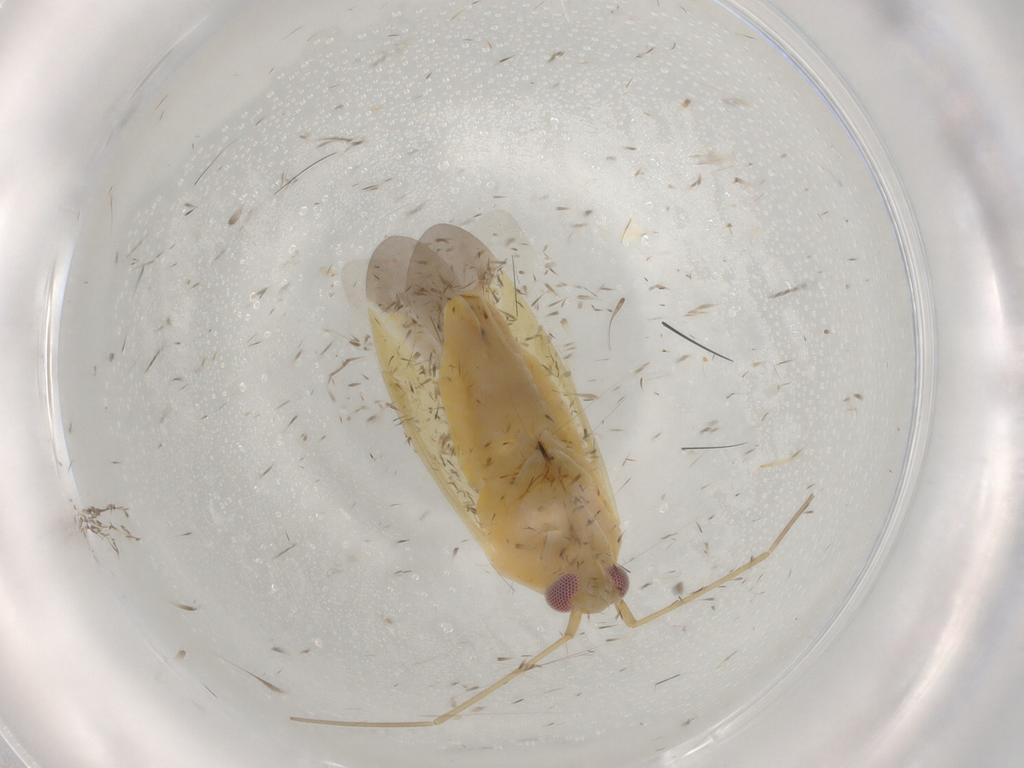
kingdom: Animalia
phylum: Arthropoda
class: Insecta
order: Hemiptera
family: Miridae
